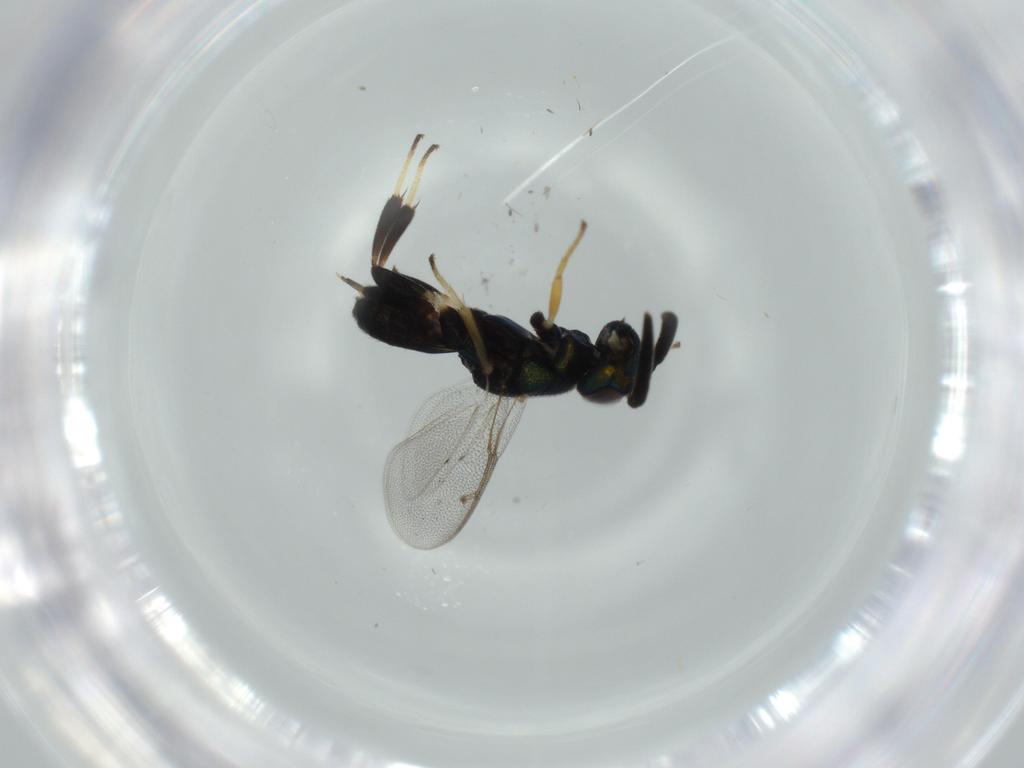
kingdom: Animalia
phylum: Arthropoda
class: Insecta
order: Hymenoptera
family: Eupelmidae
